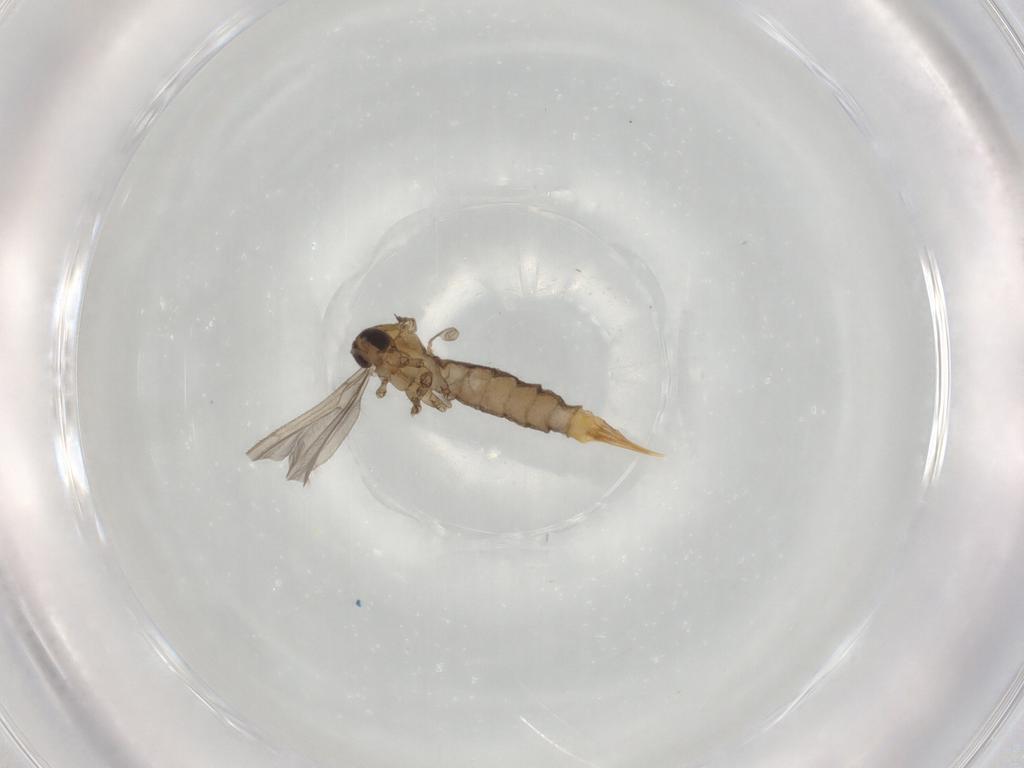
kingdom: Animalia
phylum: Arthropoda
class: Insecta
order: Diptera
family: Limoniidae
